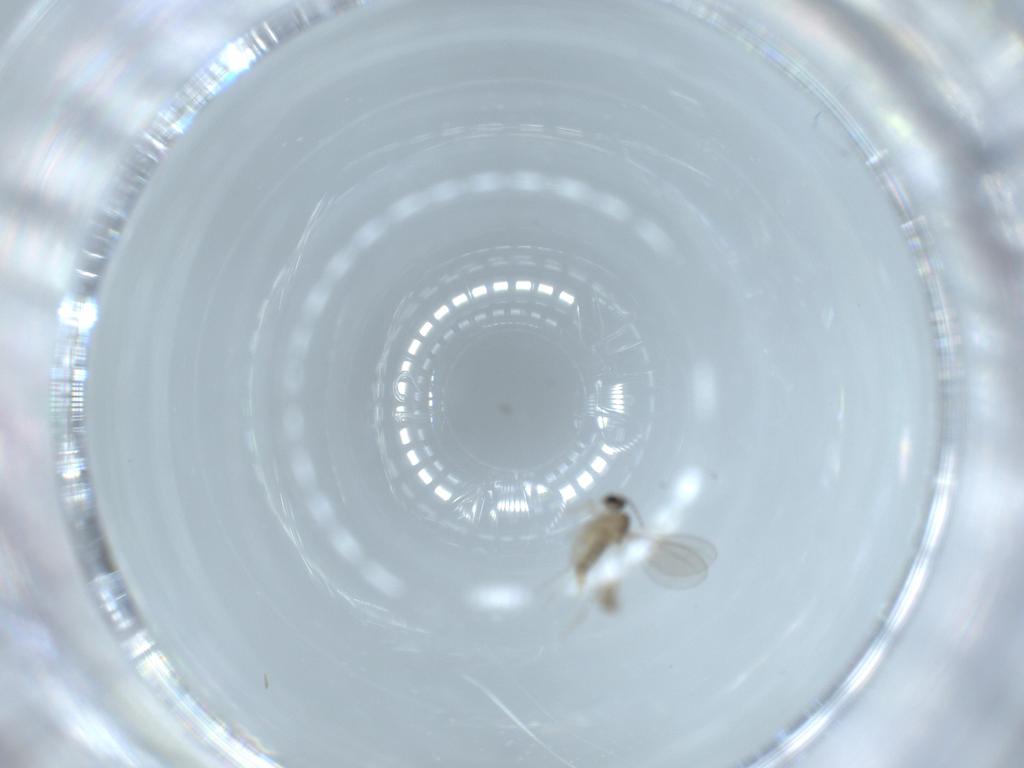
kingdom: Animalia
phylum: Arthropoda
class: Insecta
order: Diptera
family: Cecidomyiidae
